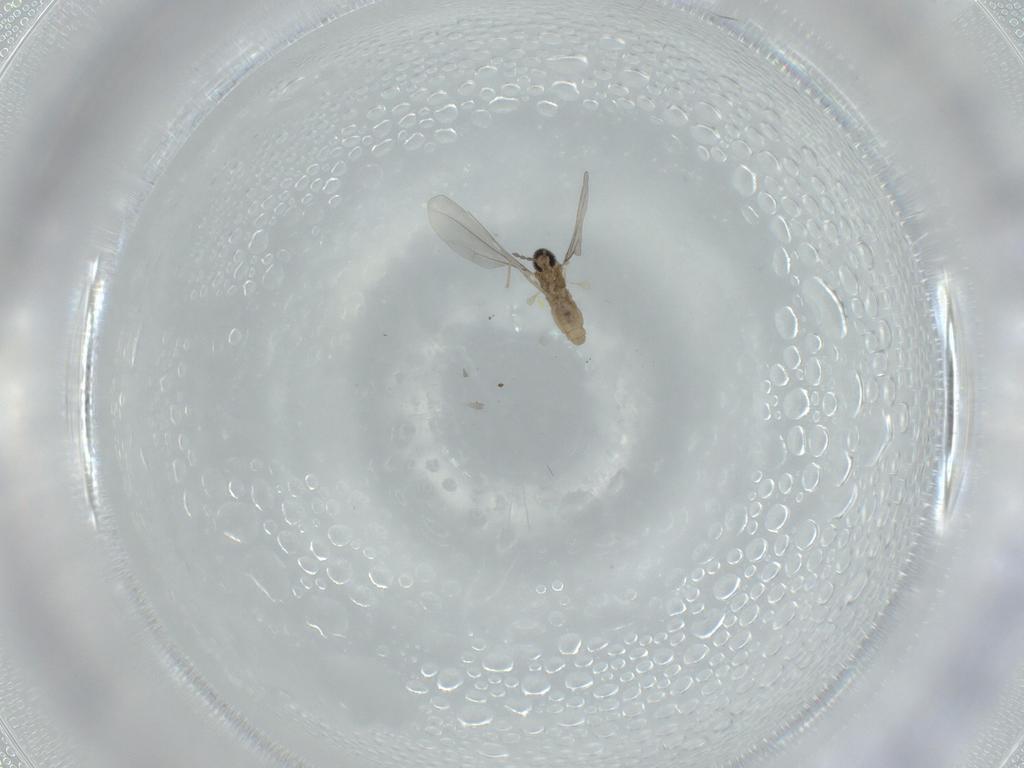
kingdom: Animalia
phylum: Arthropoda
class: Insecta
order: Diptera
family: Cecidomyiidae
